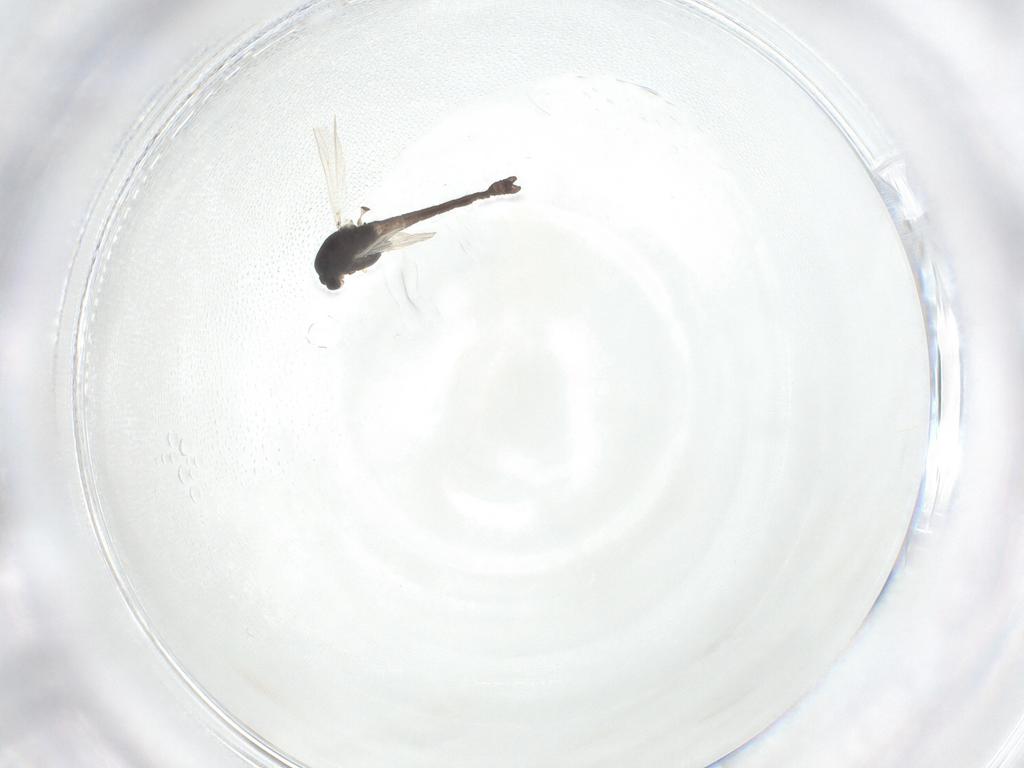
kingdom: Animalia
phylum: Arthropoda
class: Insecta
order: Diptera
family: Chironomidae
